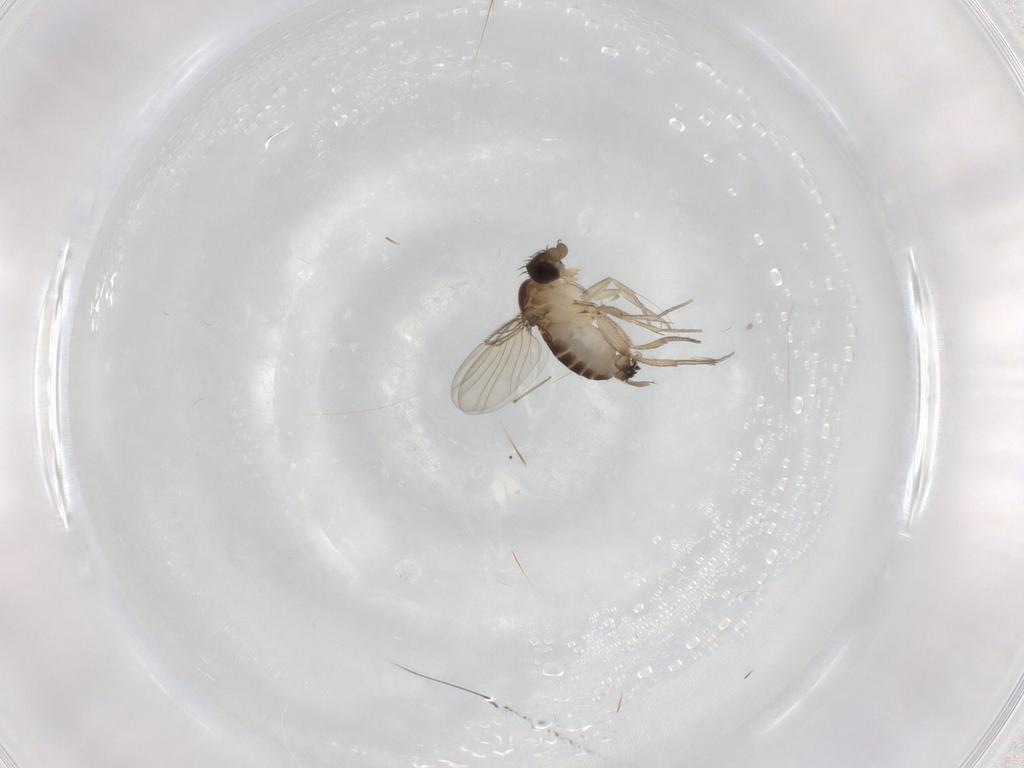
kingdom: Animalia
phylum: Arthropoda
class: Insecta
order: Diptera
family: Phoridae
